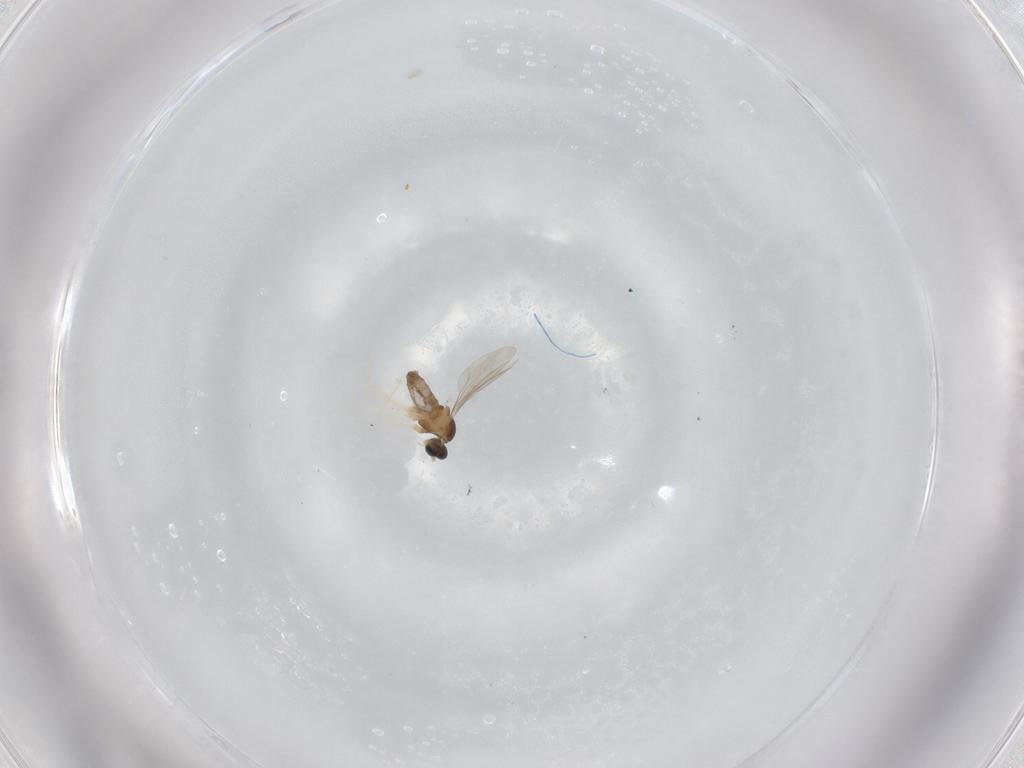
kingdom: Animalia
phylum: Arthropoda
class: Insecta
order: Diptera
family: Cecidomyiidae
